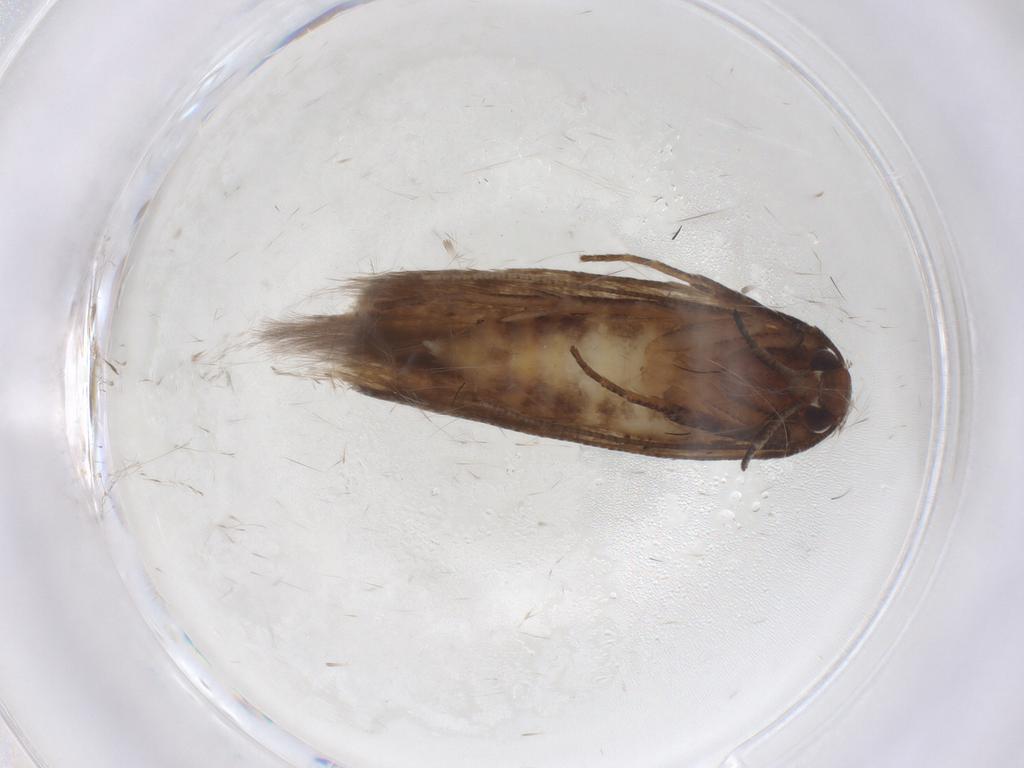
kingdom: Animalia
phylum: Arthropoda
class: Insecta
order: Lepidoptera
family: Cosmopterigidae
